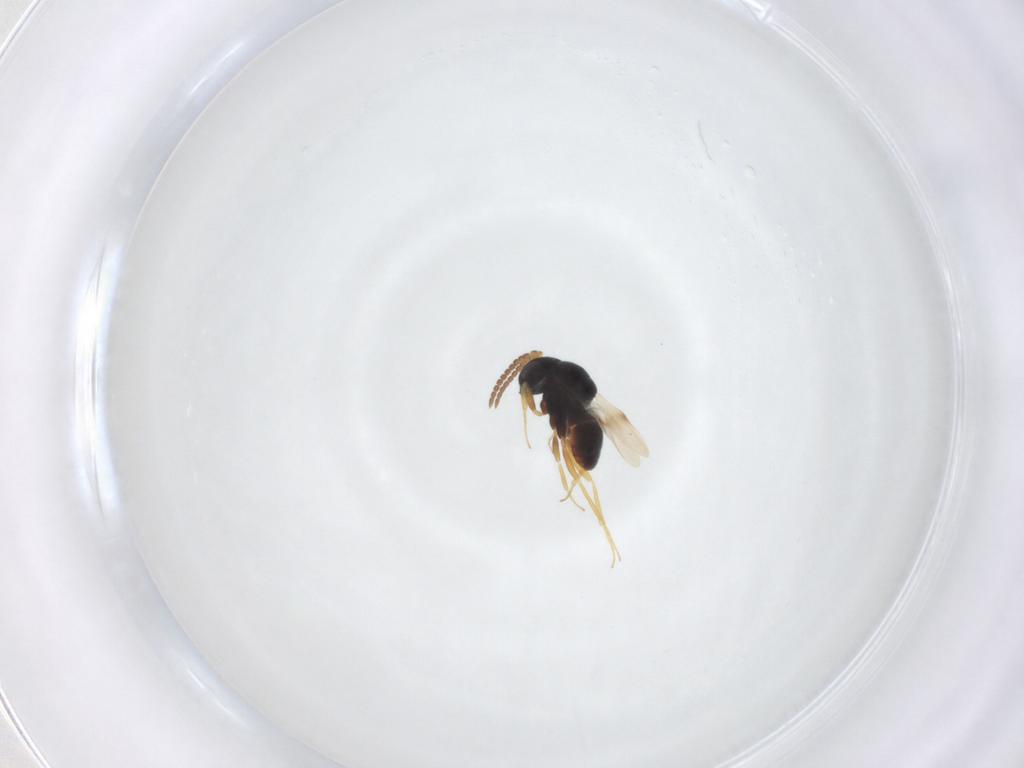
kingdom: Animalia
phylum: Arthropoda
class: Insecta
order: Hymenoptera
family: Scelionidae
